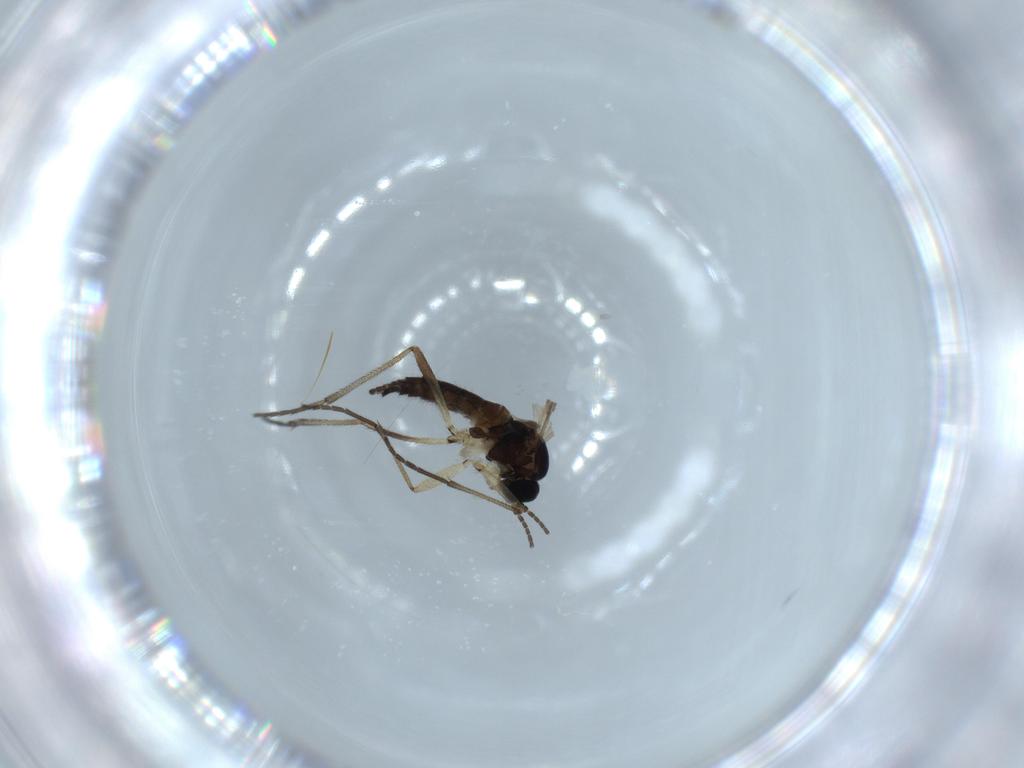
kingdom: Animalia
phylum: Arthropoda
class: Insecta
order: Diptera
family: Sciaridae
